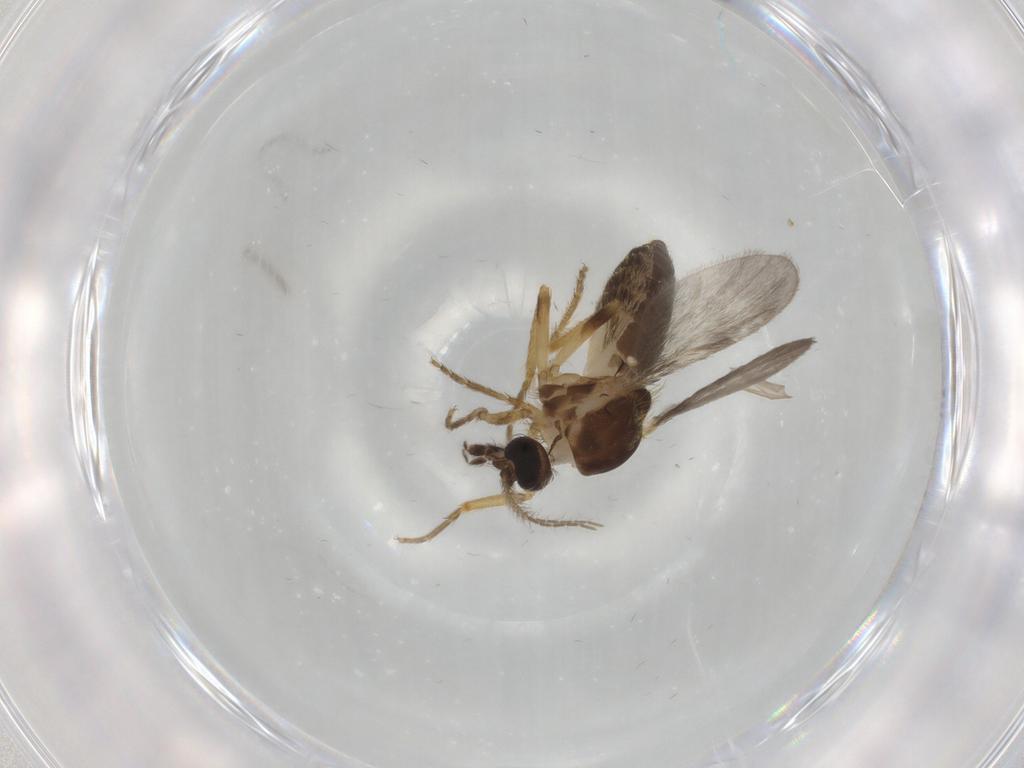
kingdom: Animalia
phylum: Arthropoda
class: Insecta
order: Diptera
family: Ceratopogonidae
